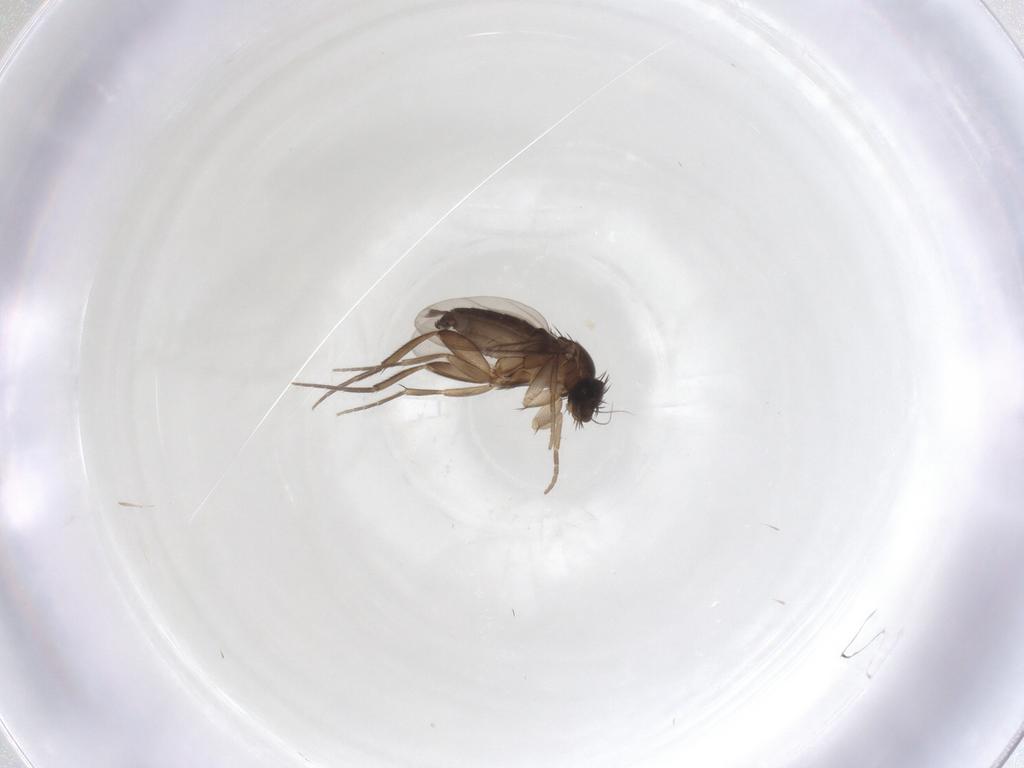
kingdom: Animalia
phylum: Arthropoda
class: Insecta
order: Diptera
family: Phoridae
